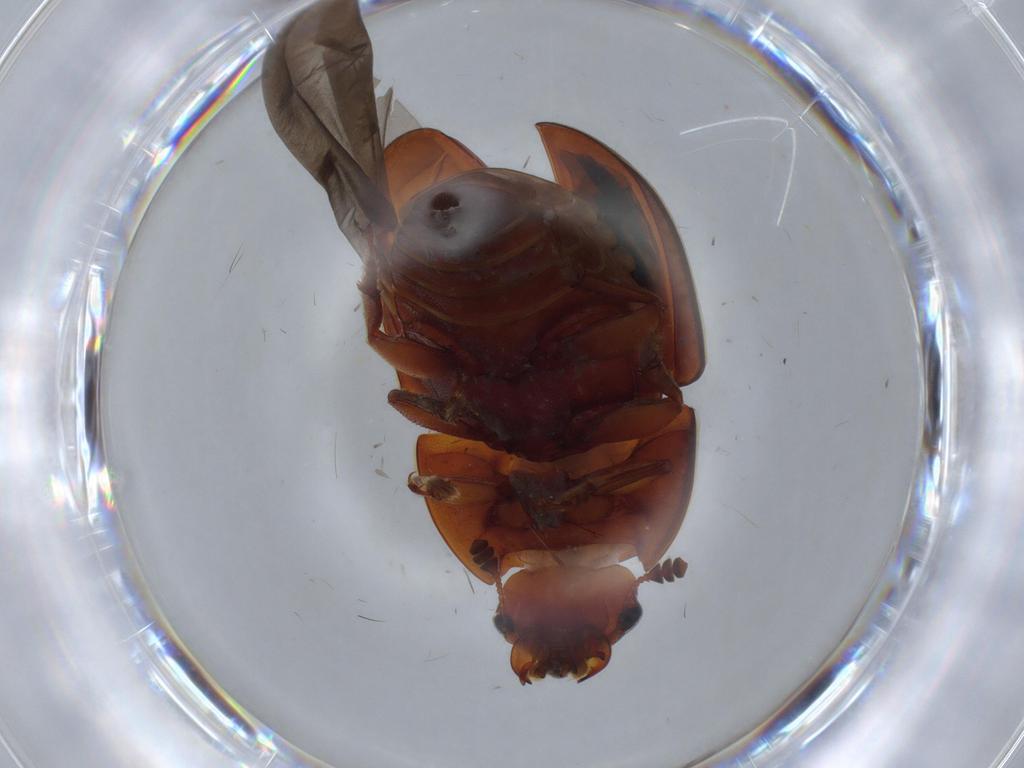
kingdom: Animalia
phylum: Arthropoda
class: Insecta
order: Coleoptera
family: Nitidulidae
